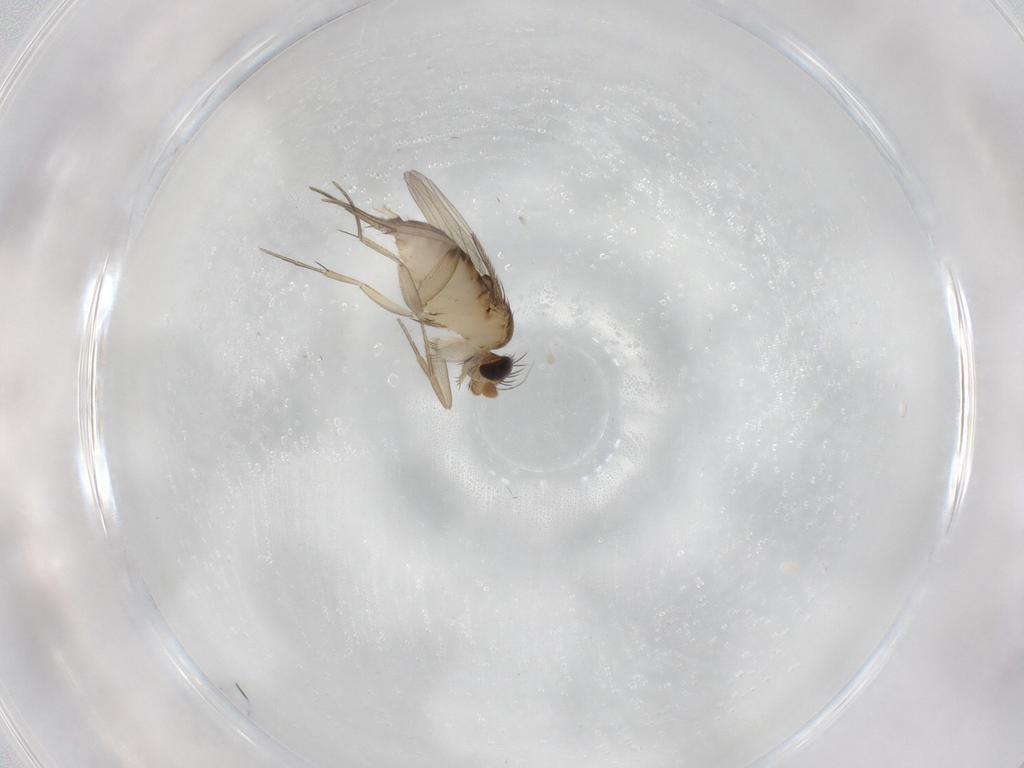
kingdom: Animalia
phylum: Arthropoda
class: Insecta
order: Diptera
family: Phoridae
